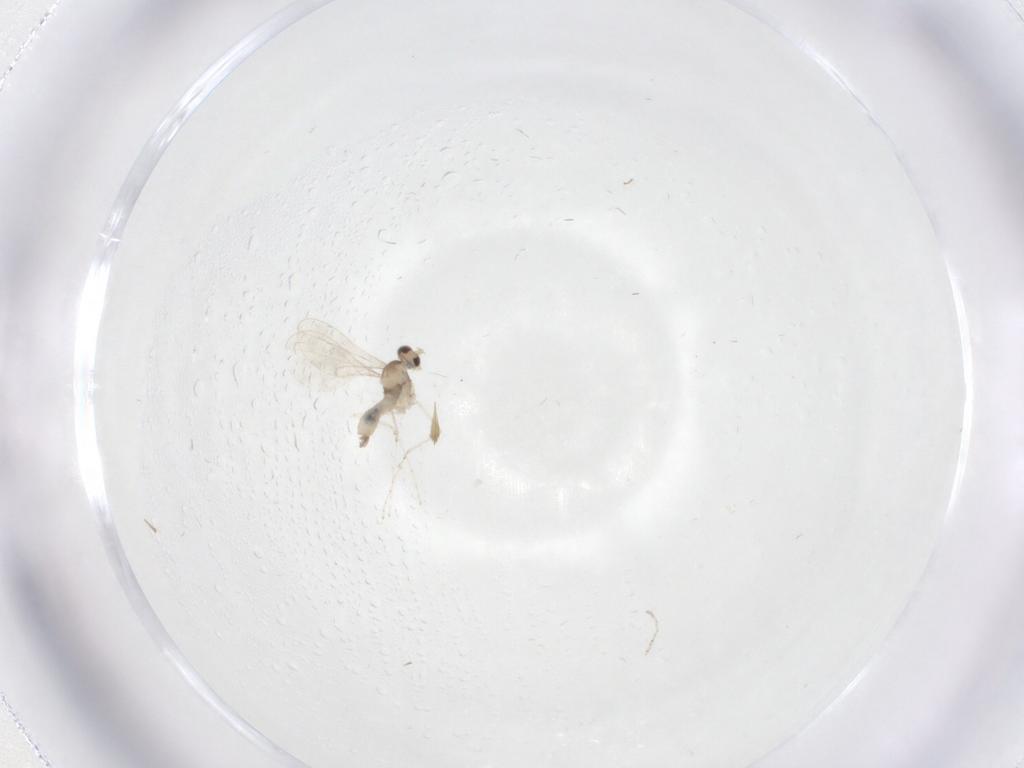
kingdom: Animalia
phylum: Arthropoda
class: Insecta
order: Diptera
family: Cecidomyiidae
